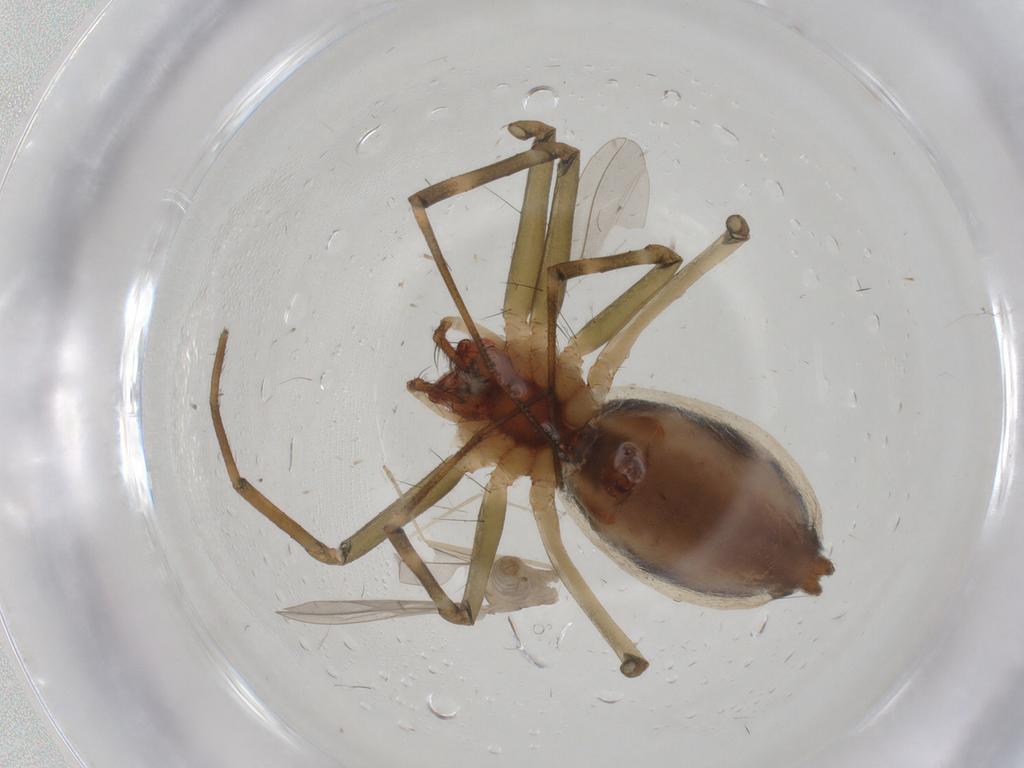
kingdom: Animalia
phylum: Arthropoda
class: Insecta
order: Diptera
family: Cecidomyiidae
